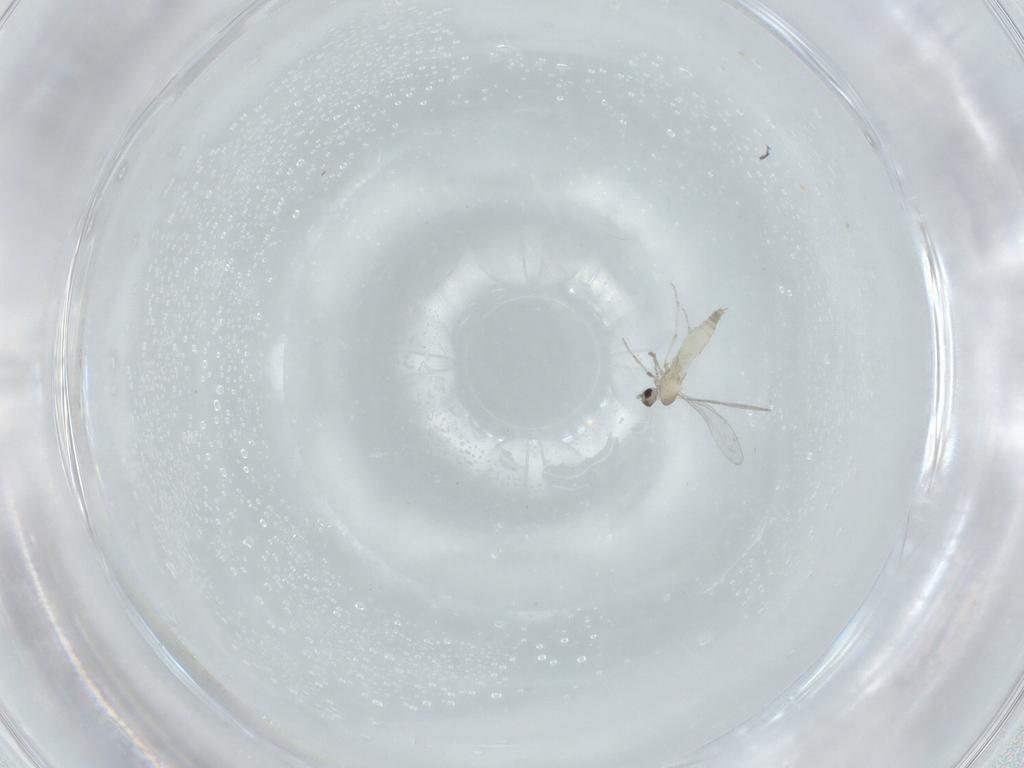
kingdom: Animalia
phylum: Arthropoda
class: Insecta
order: Diptera
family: Cecidomyiidae
